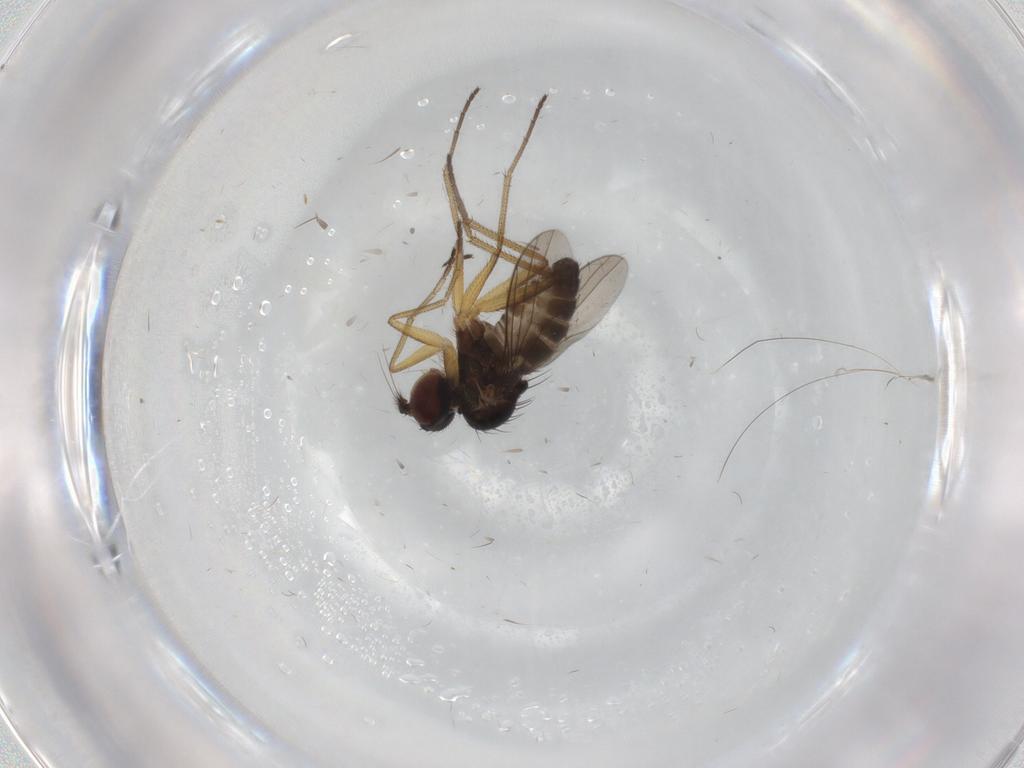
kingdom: Animalia
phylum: Arthropoda
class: Insecta
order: Diptera
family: Dolichopodidae
